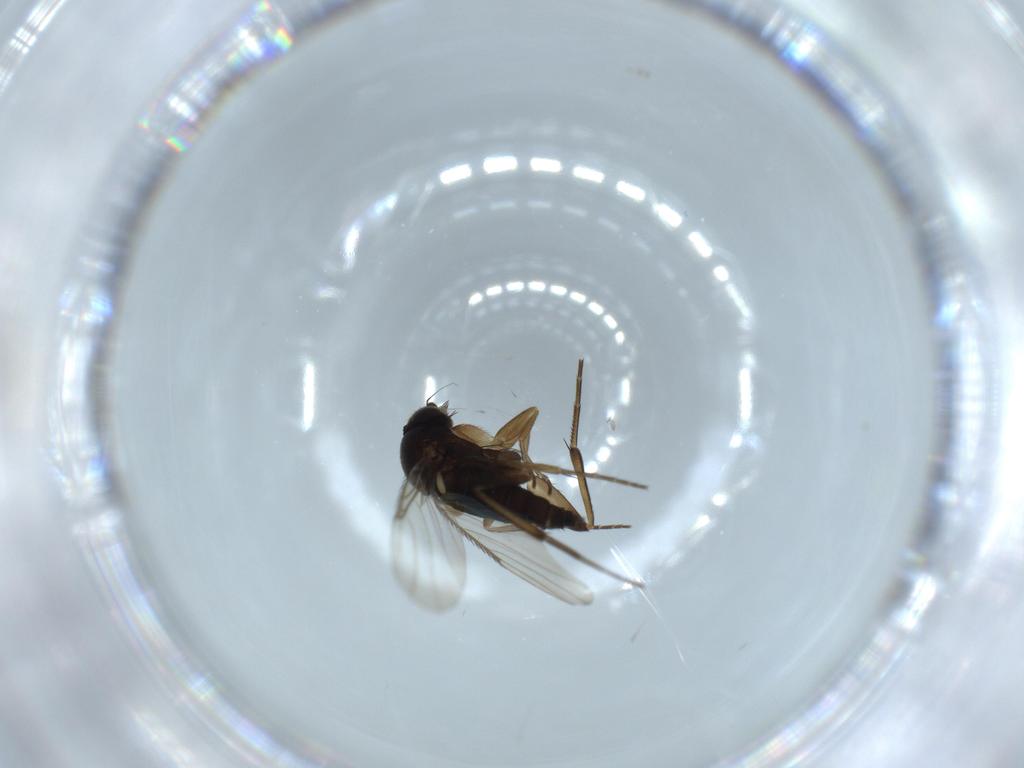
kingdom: Animalia
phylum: Arthropoda
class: Insecta
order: Diptera
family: Phoridae
